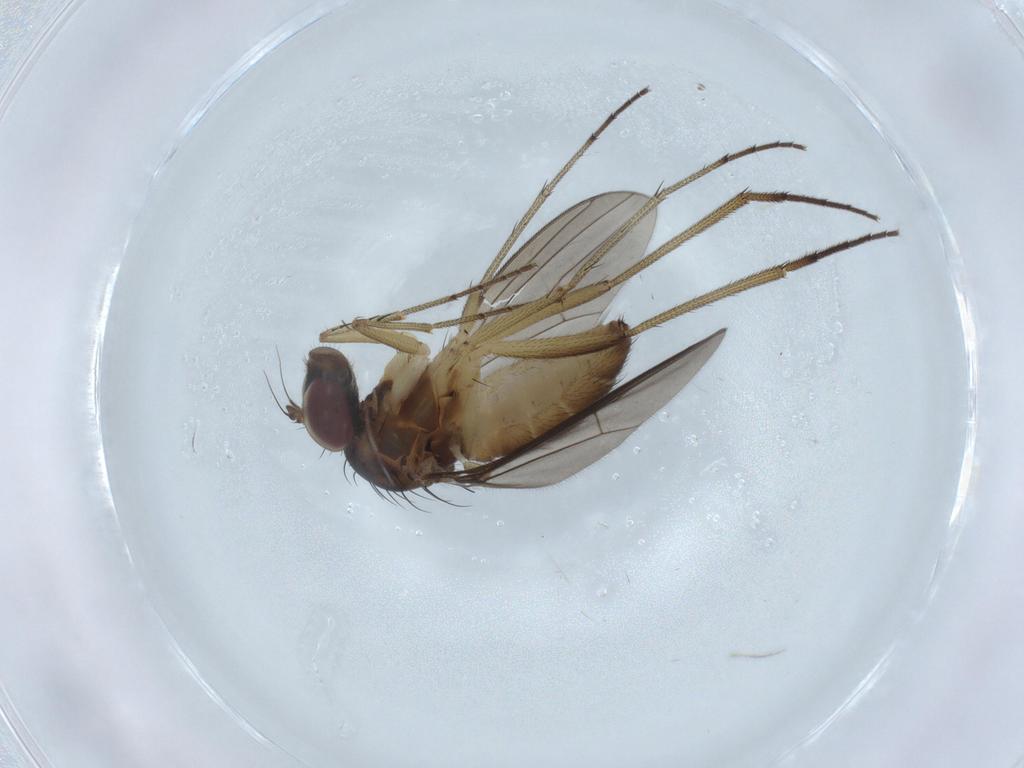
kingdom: Animalia
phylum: Arthropoda
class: Insecta
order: Diptera
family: Dolichopodidae
